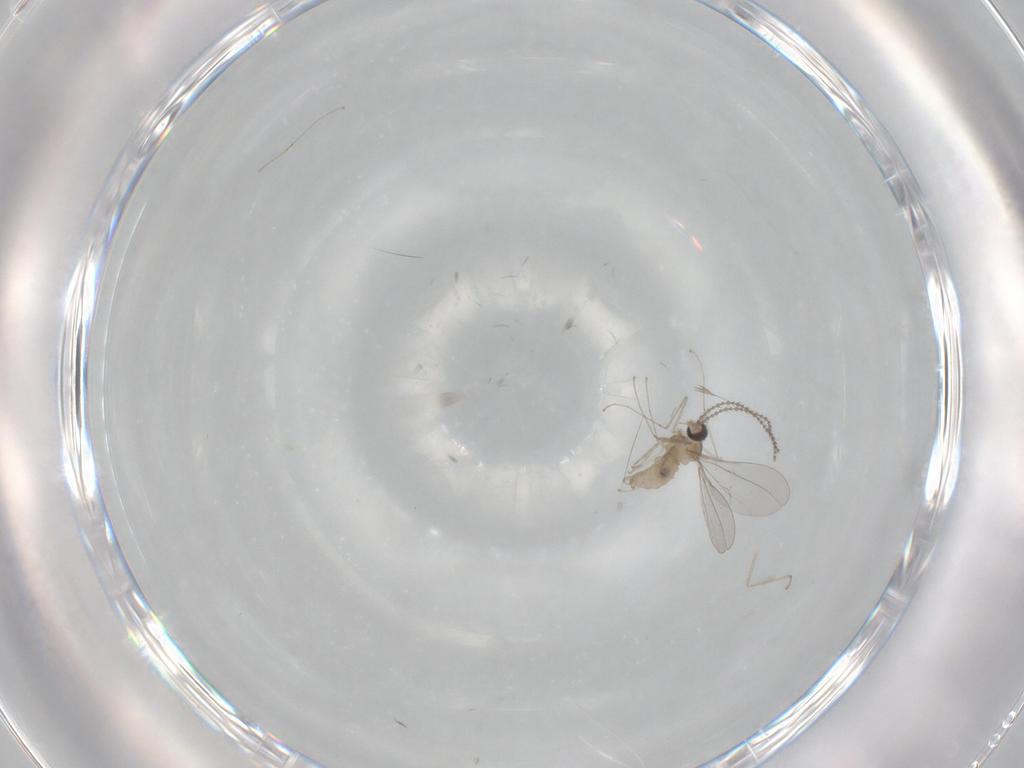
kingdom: Animalia
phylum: Arthropoda
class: Insecta
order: Diptera
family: Cecidomyiidae
